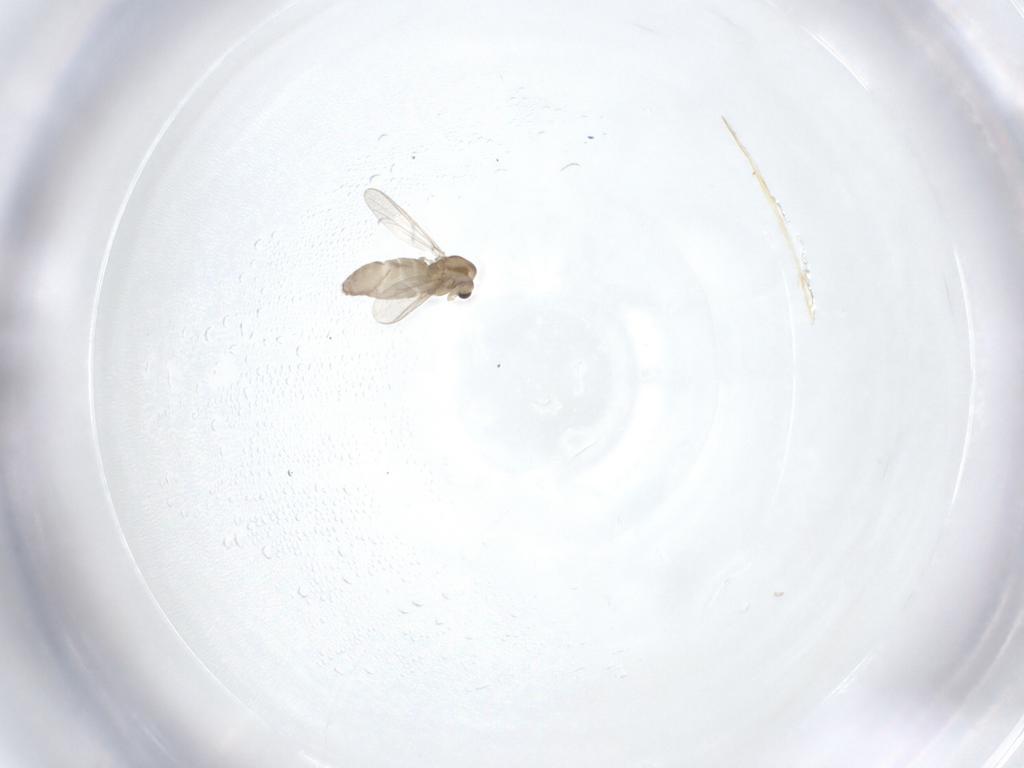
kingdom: Animalia
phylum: Arthropoda
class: Insecta
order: Diptera
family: Chironomidae
